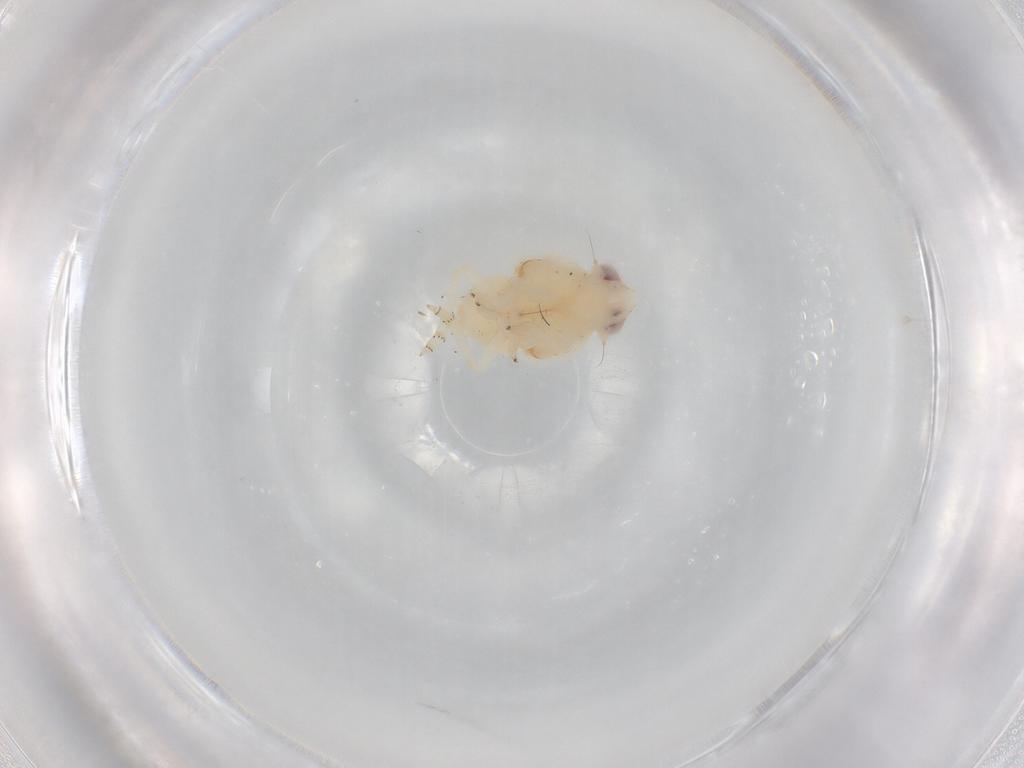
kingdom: Animalia
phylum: Arthropoda
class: Insecta
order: Hemiptera
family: Nogodinidae
